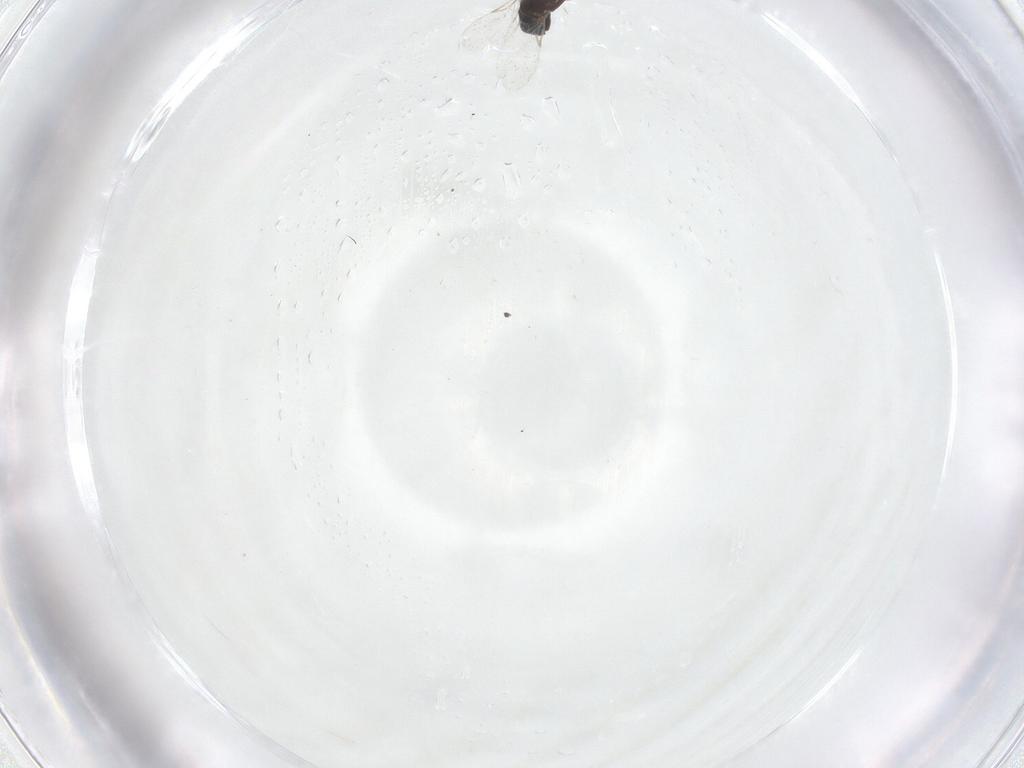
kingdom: Animalia
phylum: Arthropoda
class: Insecta
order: Diptera
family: Scatopsidae
